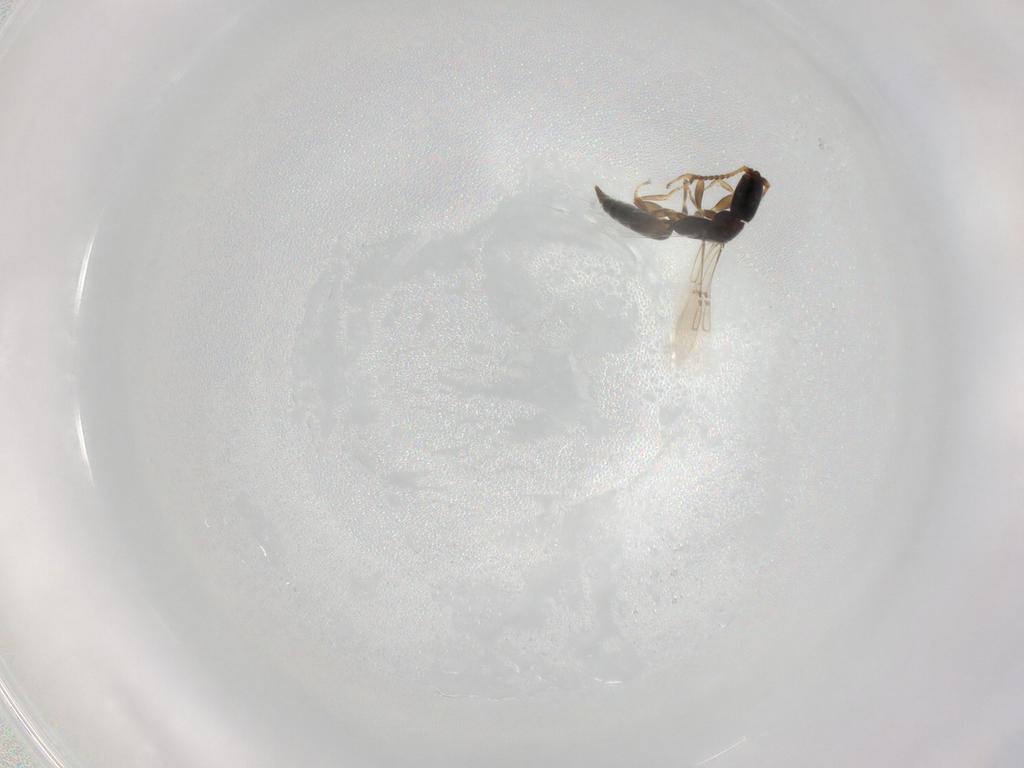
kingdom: Animalia
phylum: Arthropoda
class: Insecta
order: Hymenoptera
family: Bethylidae
